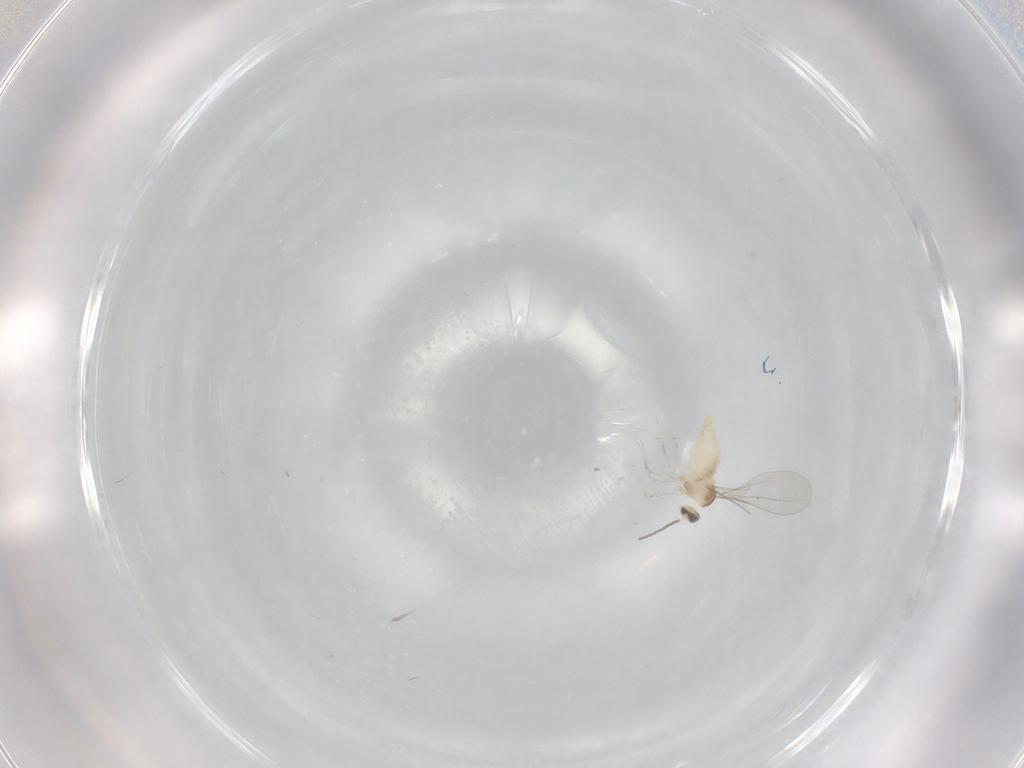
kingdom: Animalia
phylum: Arthropoda
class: Insecta
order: Diptera
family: Cecidomyiidae
